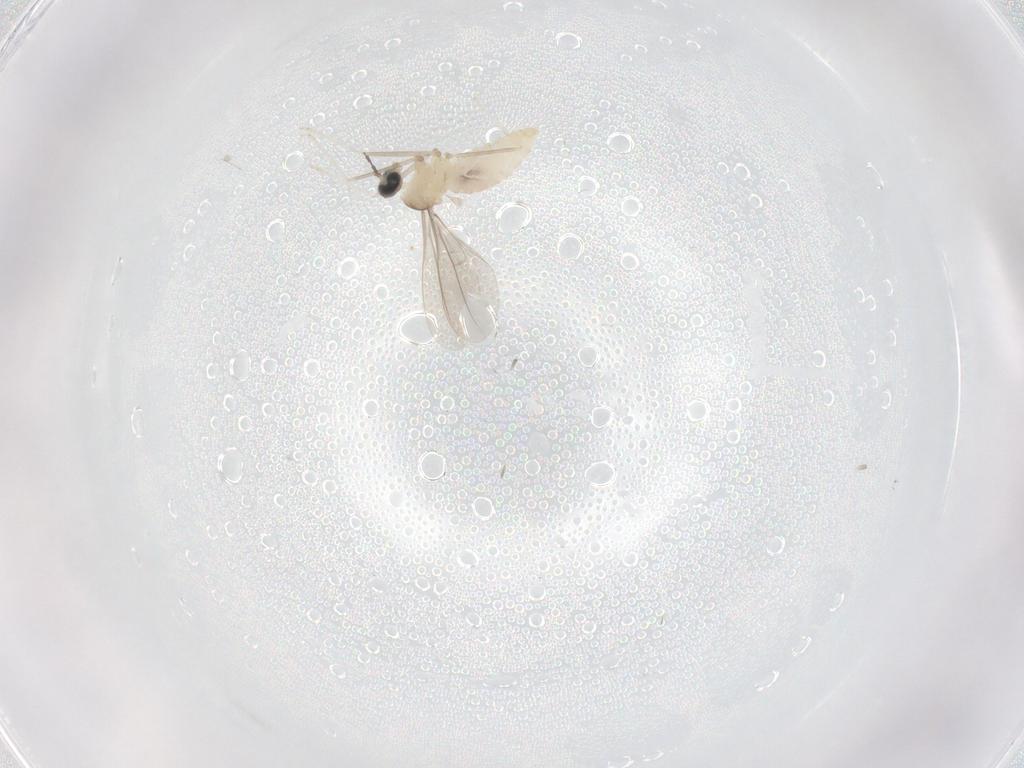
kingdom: Animalia
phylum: Arthropoda
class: Insecta
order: Diptera
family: Cecidomyiidae
